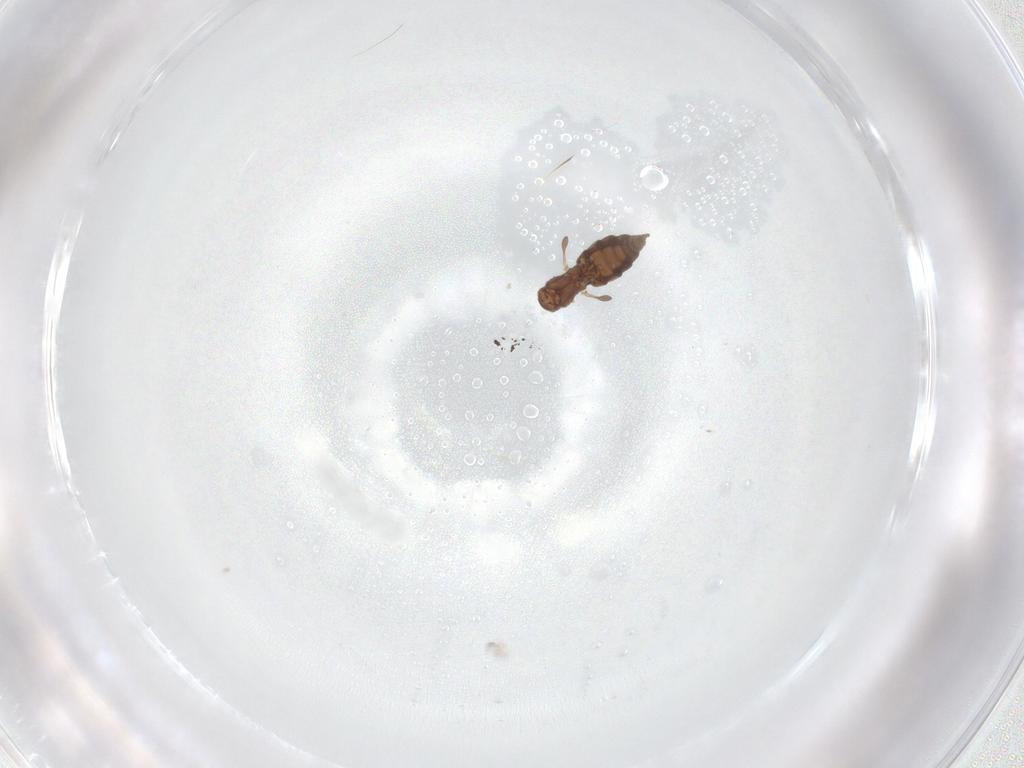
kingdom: Animalia
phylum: Arthropoda
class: Insecta
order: Diptera
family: Sciaridae
